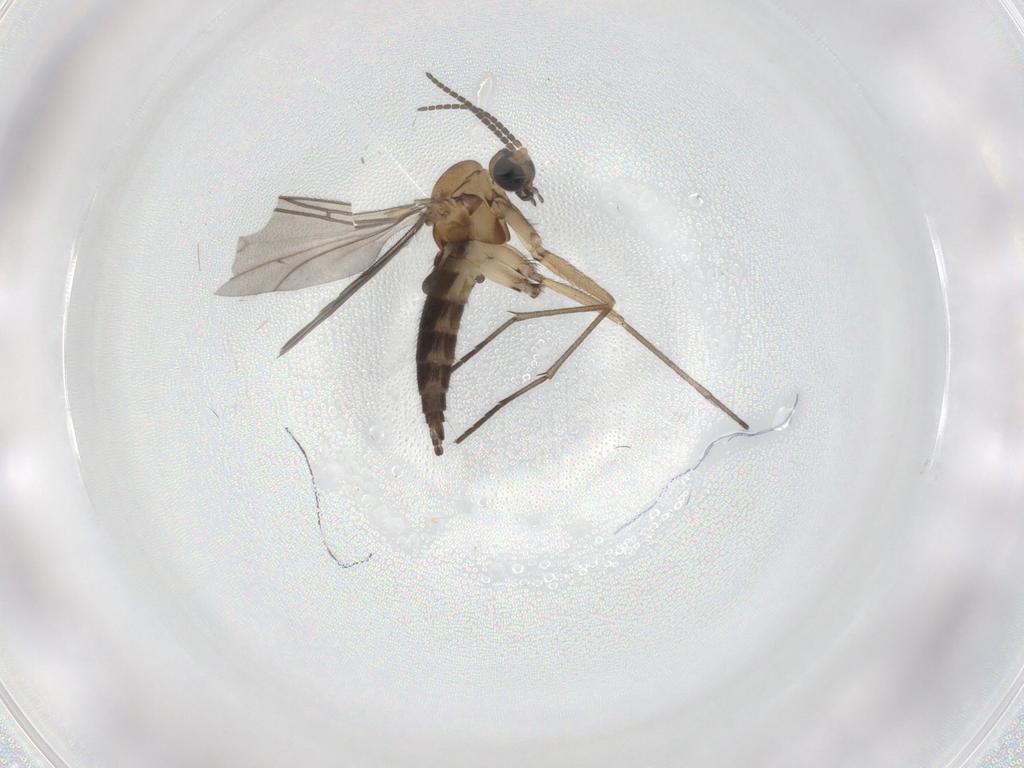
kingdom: Animalia
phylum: Arthropoda
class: Insecta
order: Diptera
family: Sciaridae
